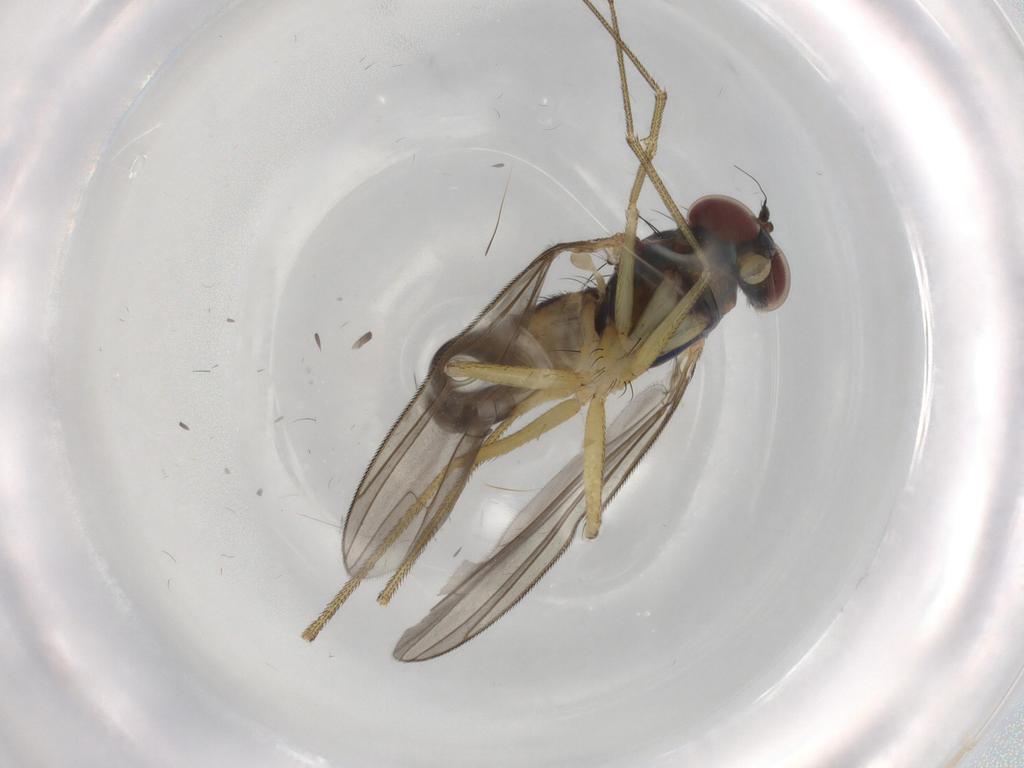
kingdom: Animalia
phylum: Arthropoda
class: Insecta
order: Diptera
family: Dolichopodidae
